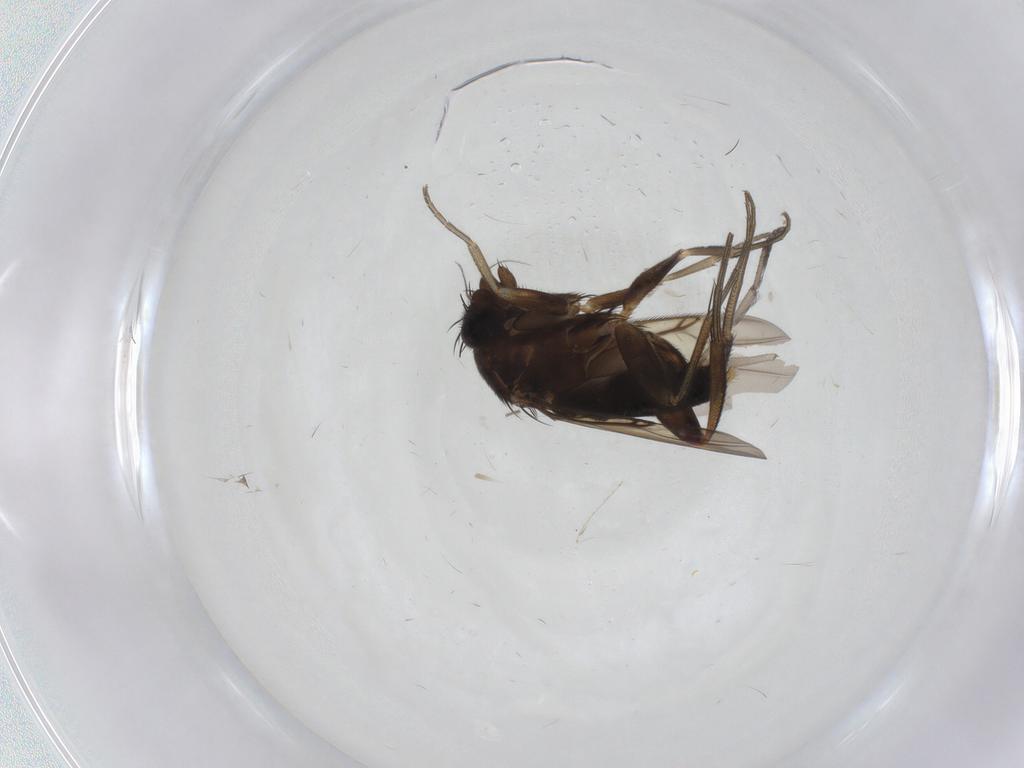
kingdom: Animalia
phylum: Arthropoda
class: Insecta
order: Diptera
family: Phoridae
